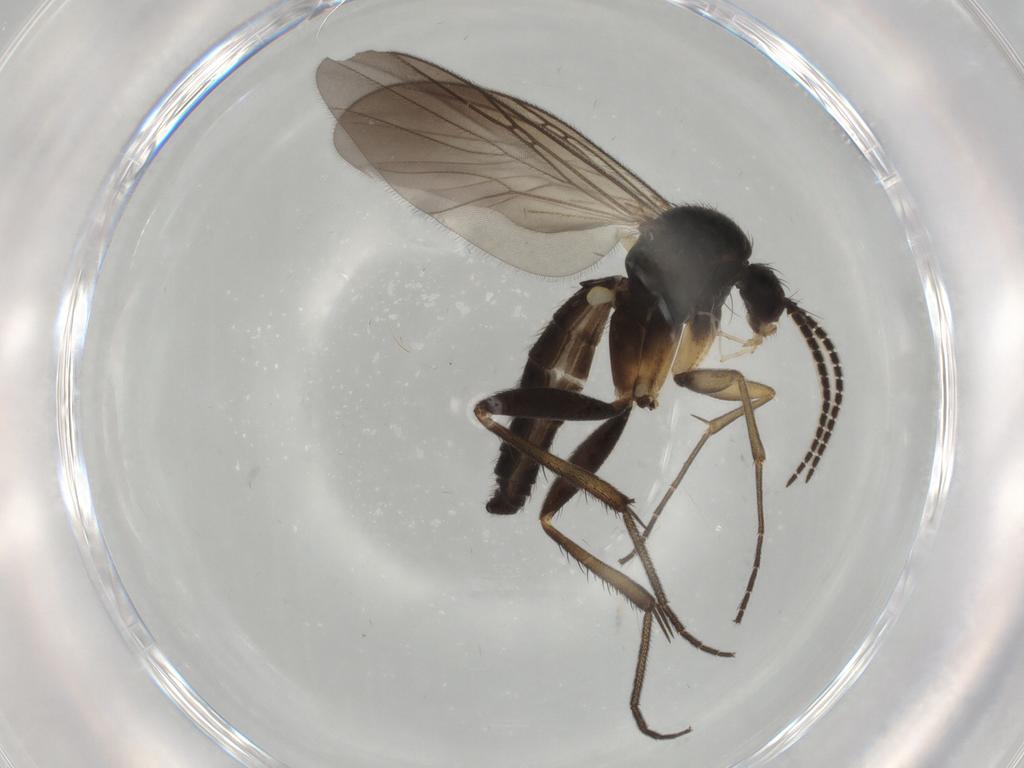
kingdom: Animalia
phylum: Arthropoda
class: Insecta
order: Diptera
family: Mycetophilidae
